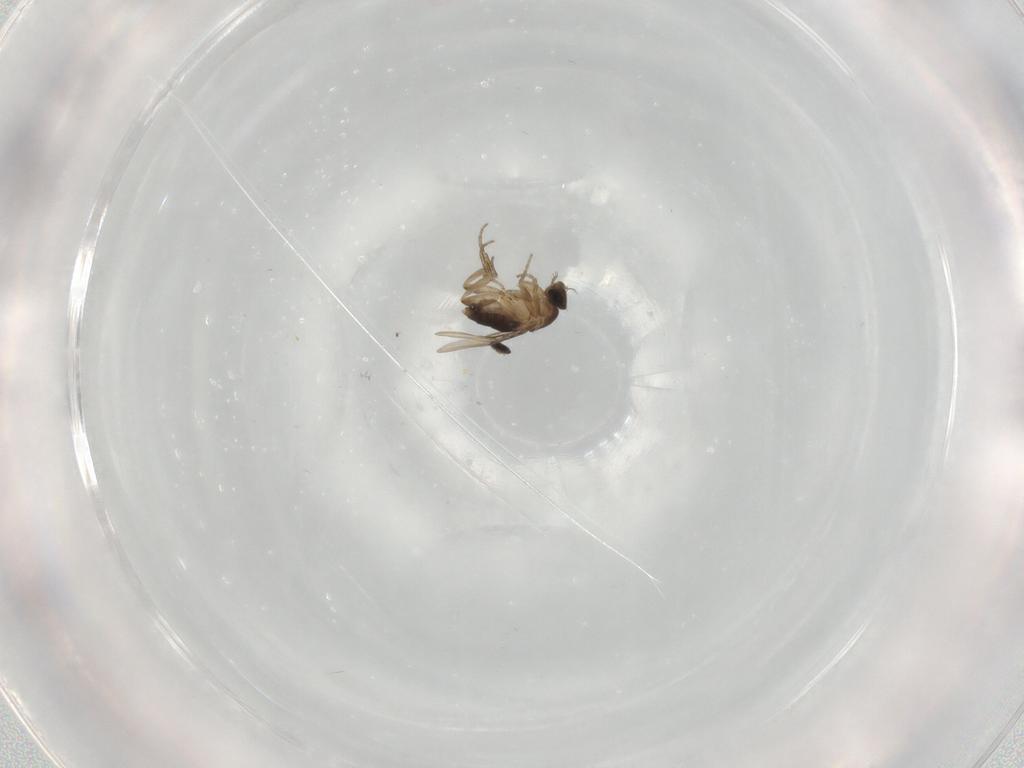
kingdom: Animalia
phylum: Arthropoda
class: Insecta
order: Diptera
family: Phoridae
